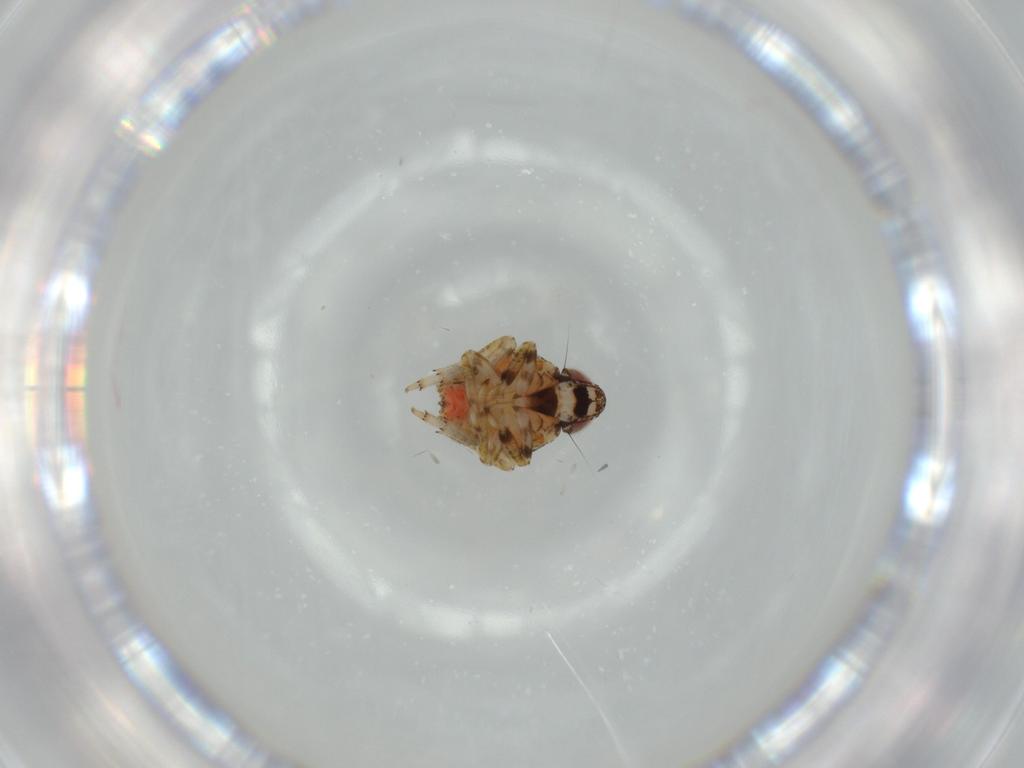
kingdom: Animalia
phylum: Arthropoda
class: Insecta
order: Hemiptera
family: Issidae
